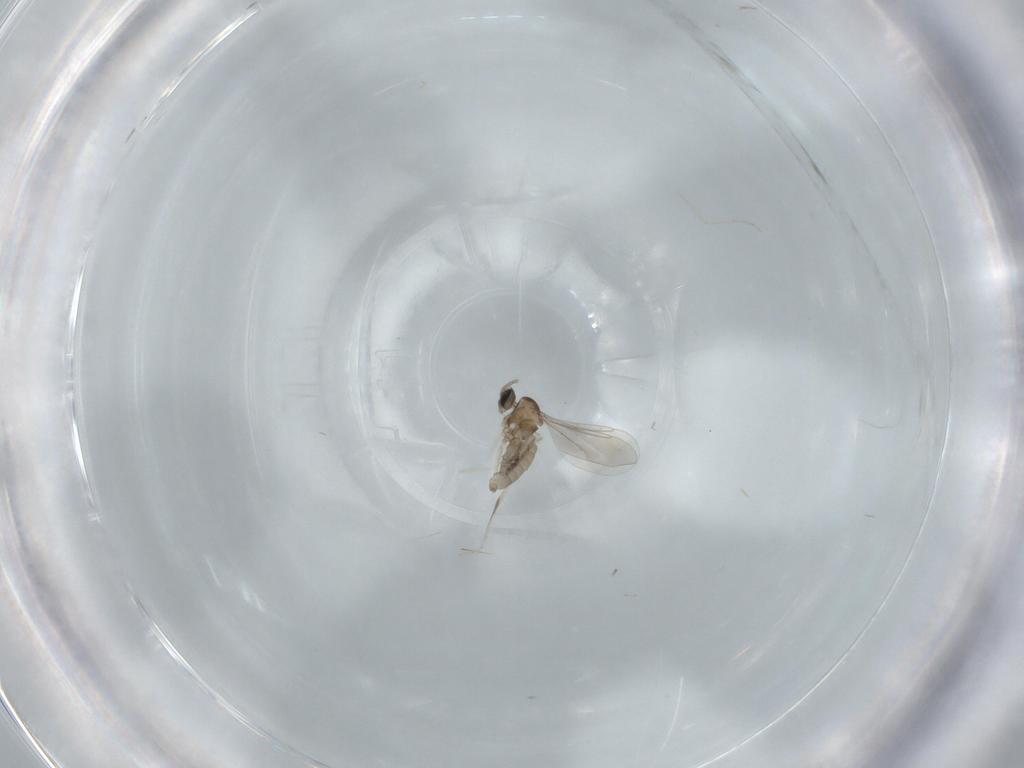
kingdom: Animalia
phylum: Arthropoda
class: Insecta
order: Diptera
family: Cecidomyiidae
